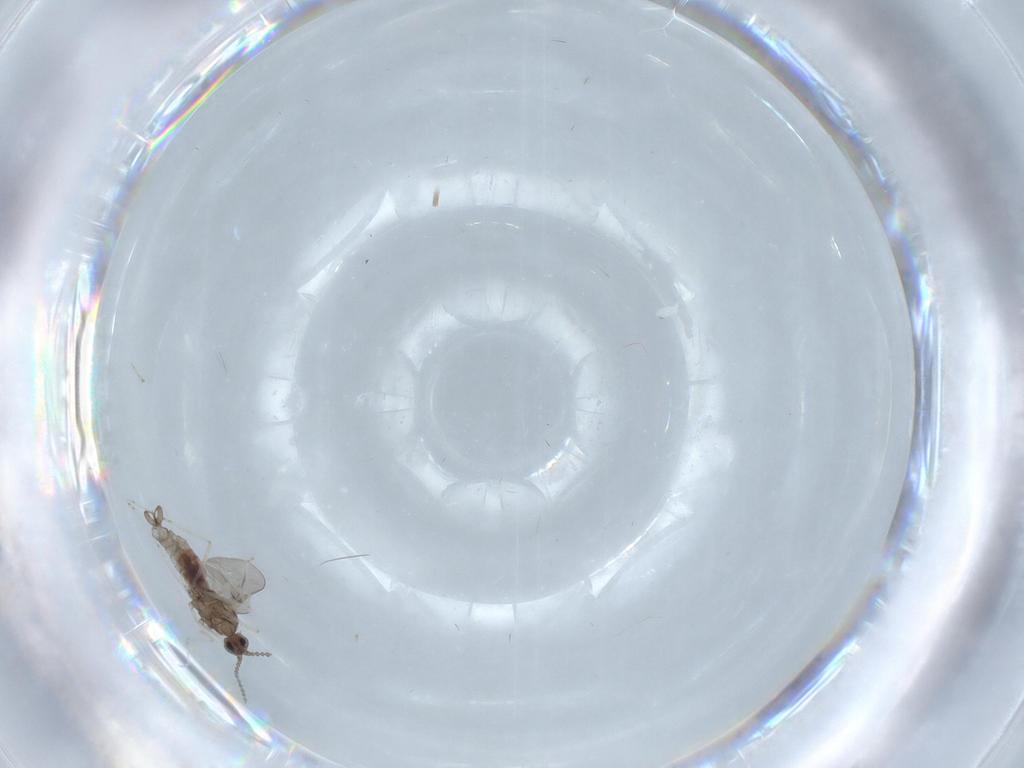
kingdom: Animalia
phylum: Arthropoda
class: Insecta
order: Diptera
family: Cecidomyiidae
